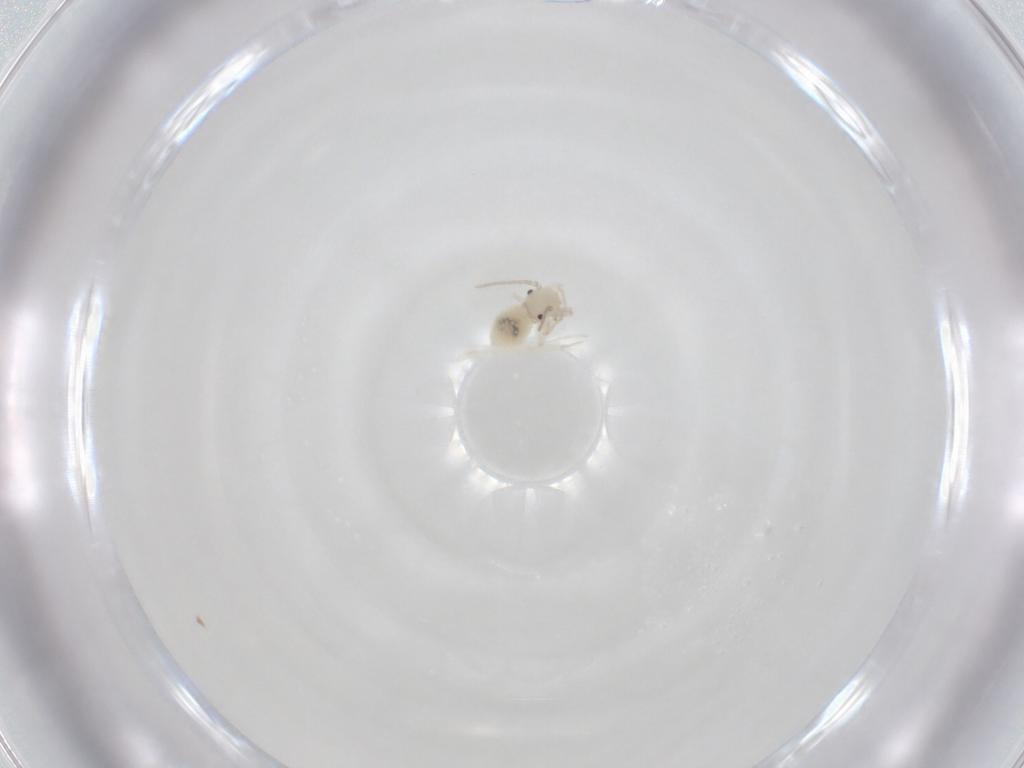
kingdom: Animalia
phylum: Arthropoda
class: Insecta
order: Psocodea
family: Caeciliusidae
